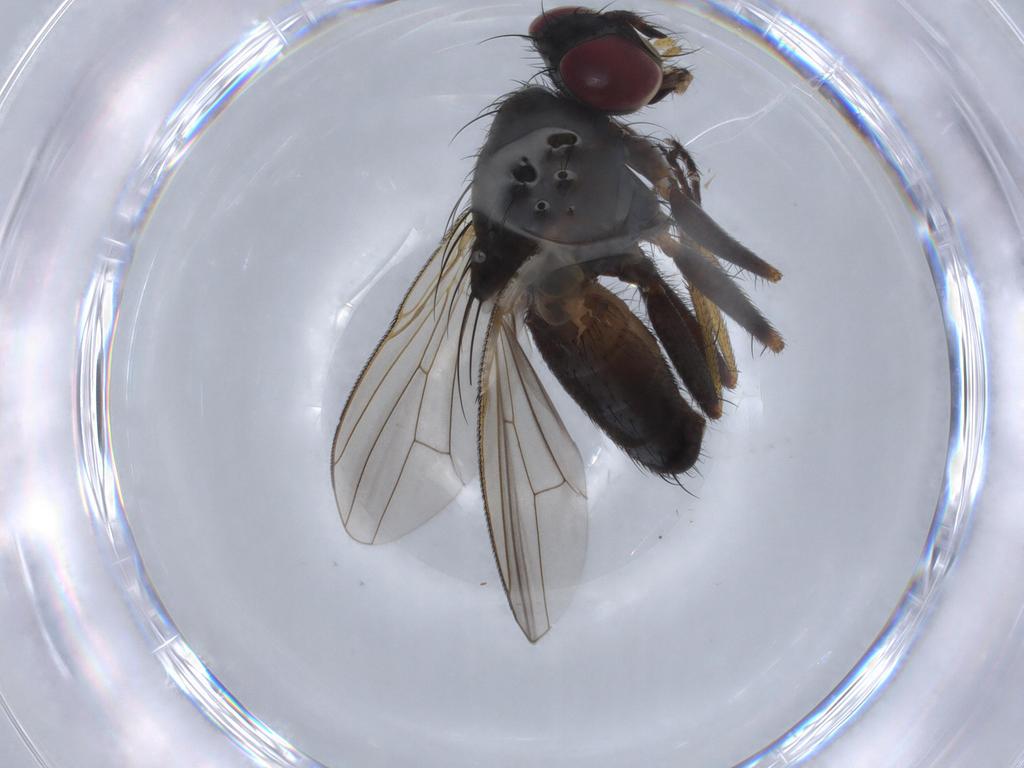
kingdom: Animalia
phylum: Arthropoda
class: Insecta
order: Diptera
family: Muscidae
